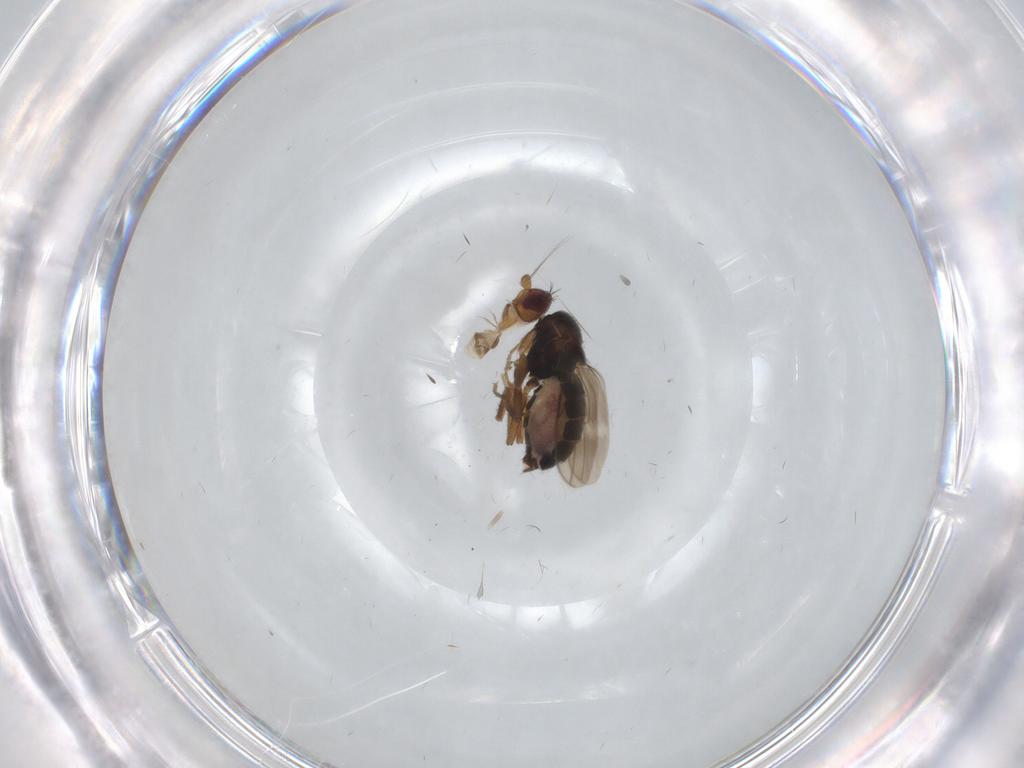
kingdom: Animalia
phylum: Arthropoda
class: Insecta
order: Diptera
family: Sphaeroceridae
